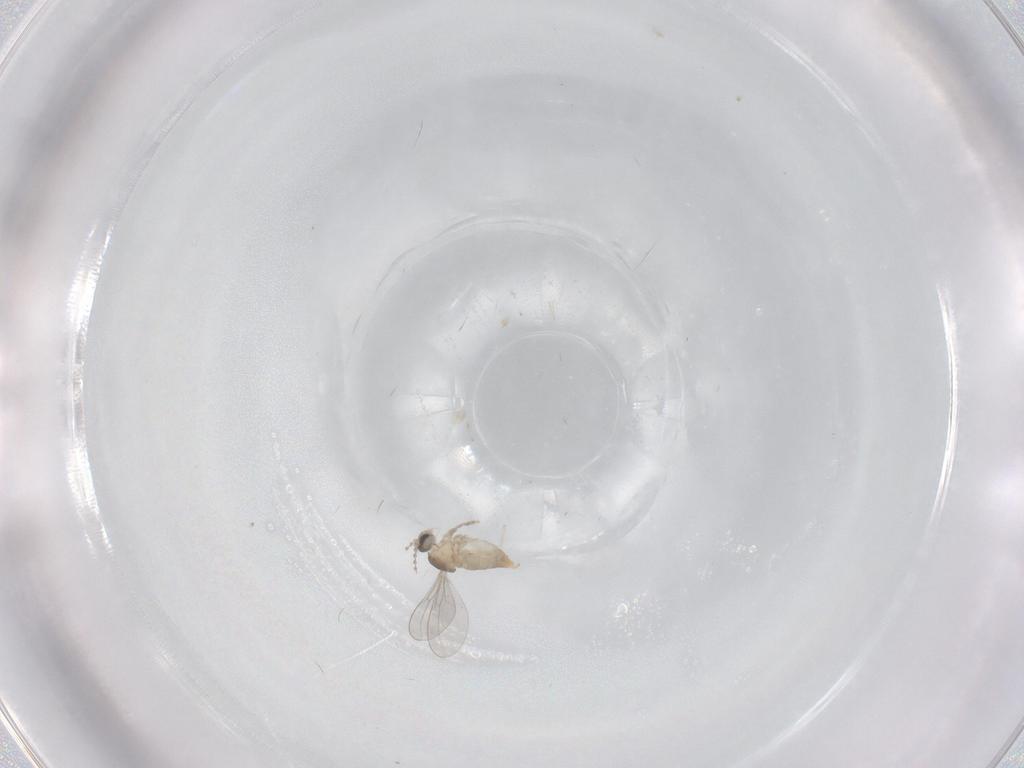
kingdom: Animalia
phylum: Arthropoda
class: Insecta
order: Diptera
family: Cecidomyiidae
